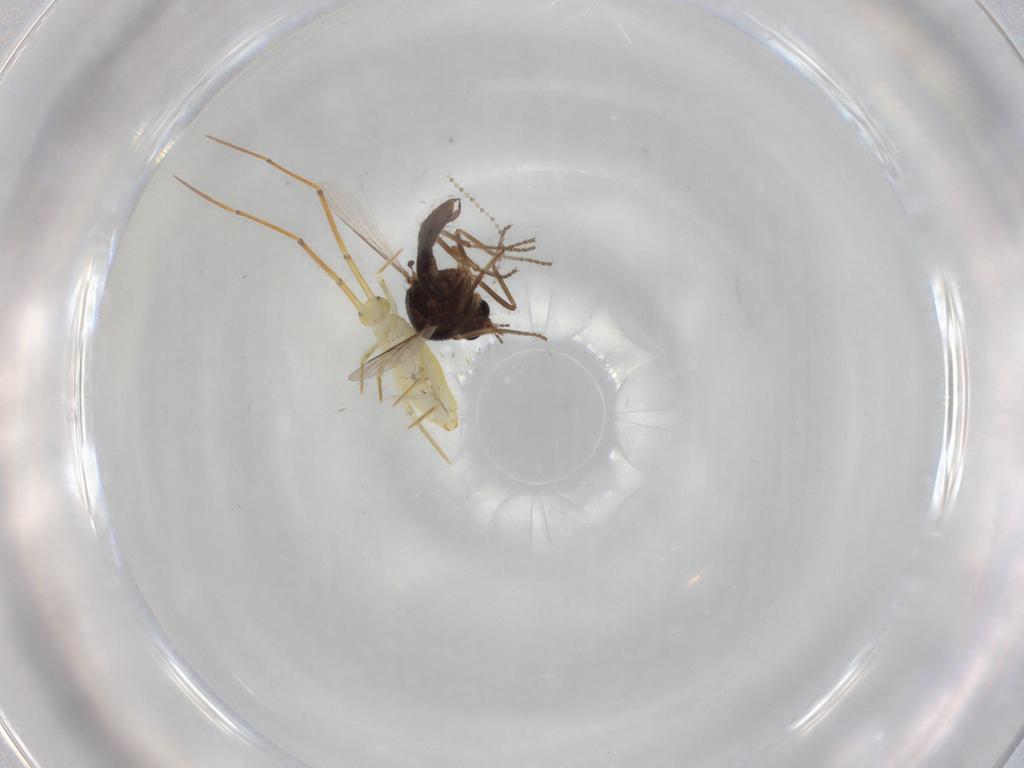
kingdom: Animalia
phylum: Arthropoda
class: Insecta
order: Diptera
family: Ceratopogonidae
